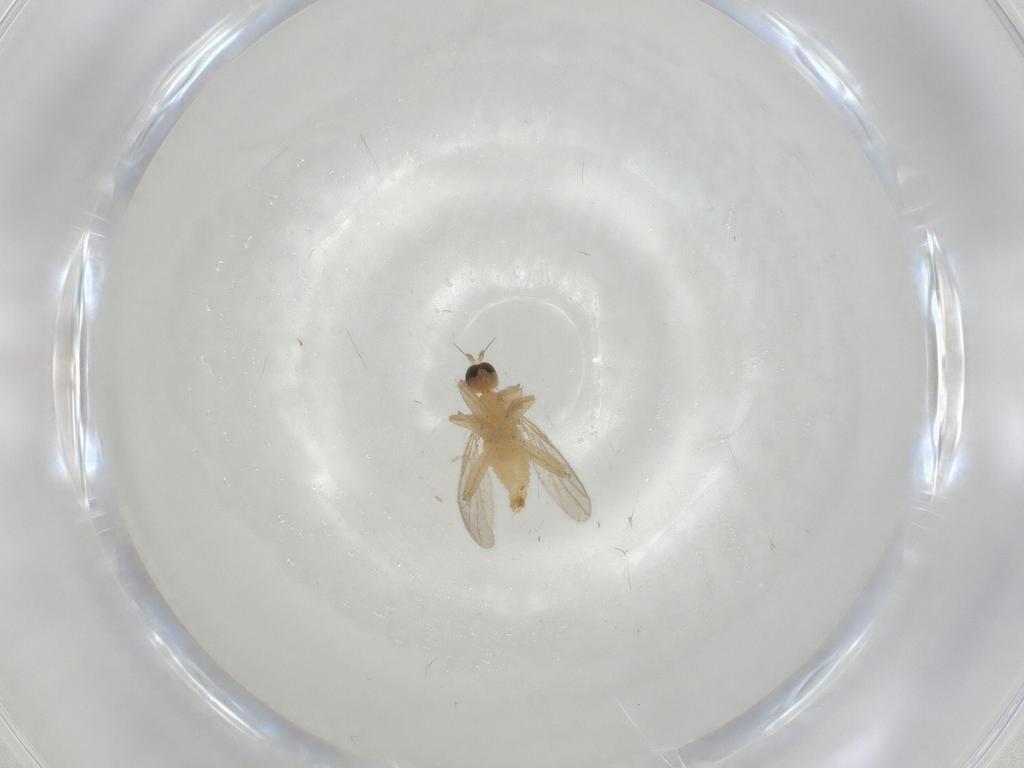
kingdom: Animalia
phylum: Arthropoda
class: Insecta
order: Diptera
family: Hybotidae
